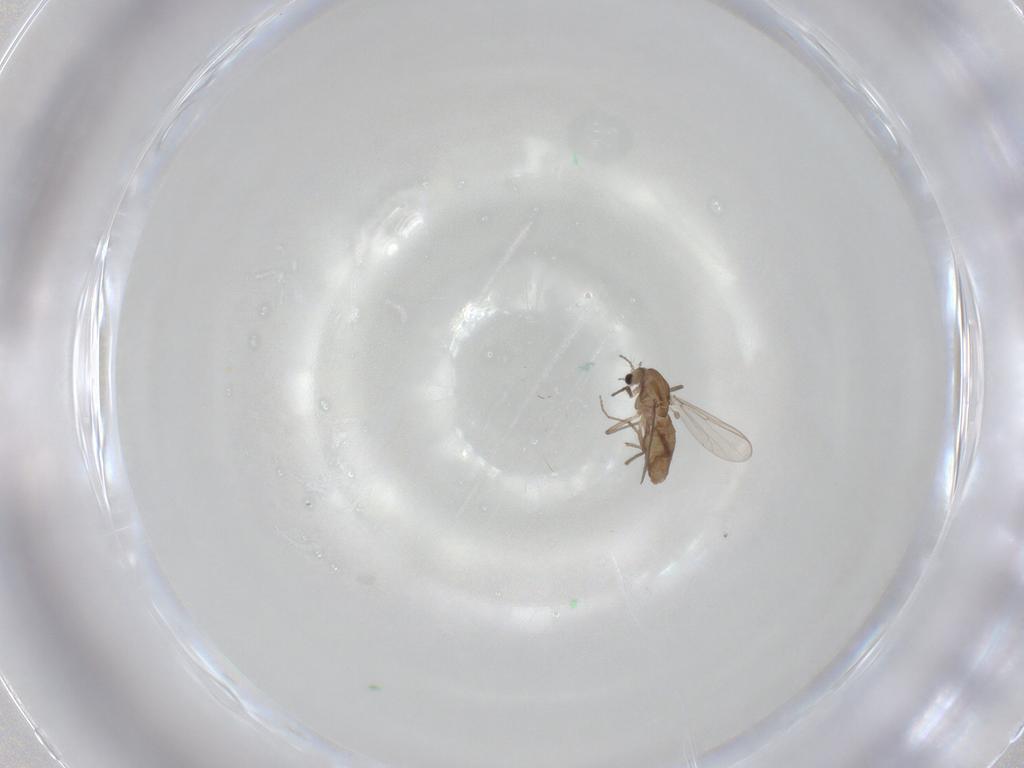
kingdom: Animalia
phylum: Arthropoda
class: Insecta
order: Diptera
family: Chironomidae
